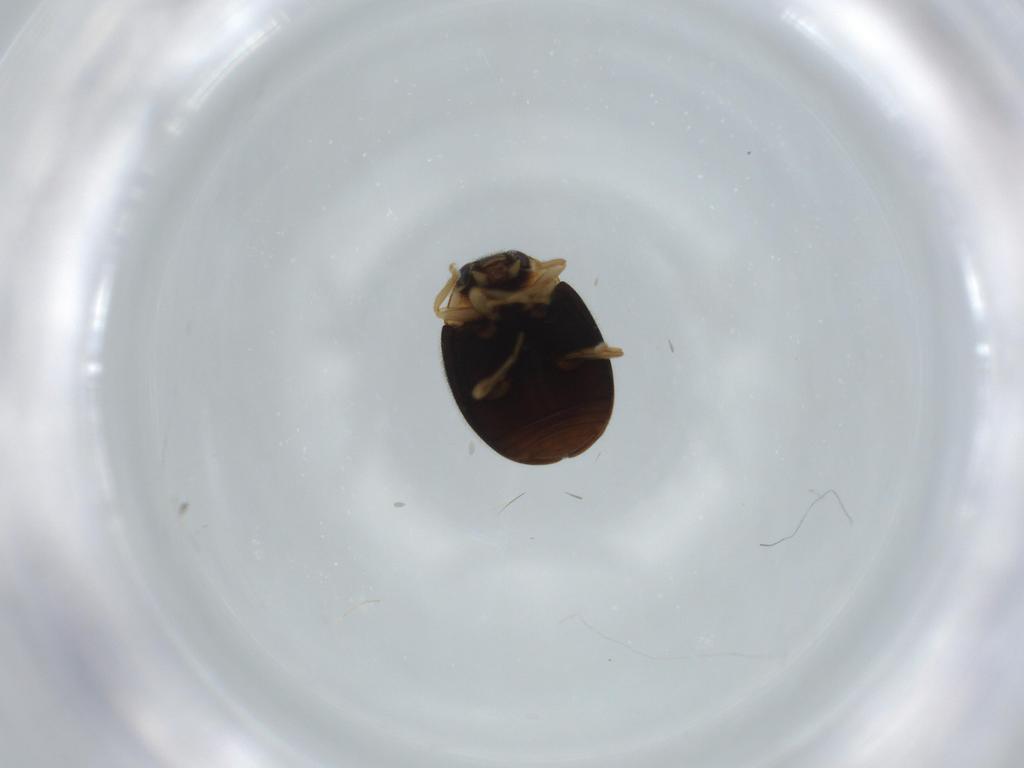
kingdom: Animalia
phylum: Arthropoda
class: Insecta
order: Coleoptera
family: Coccinellidae
